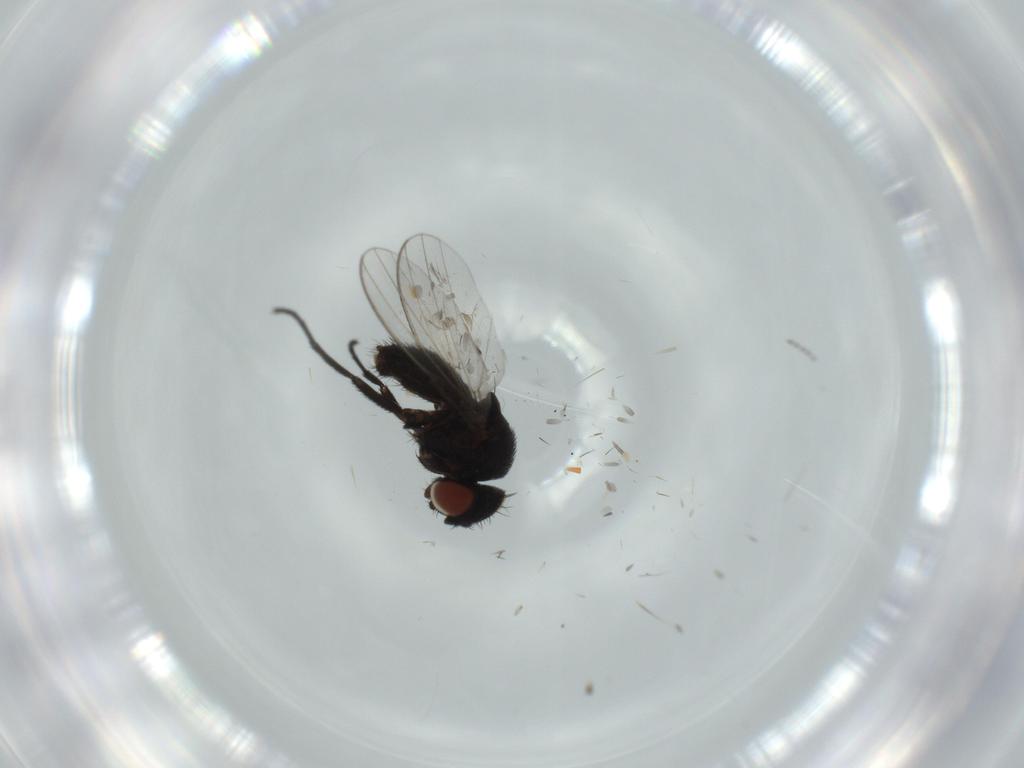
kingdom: Animalia
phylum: Arthropoda
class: Insecta
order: Diptera
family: Milichiidae
